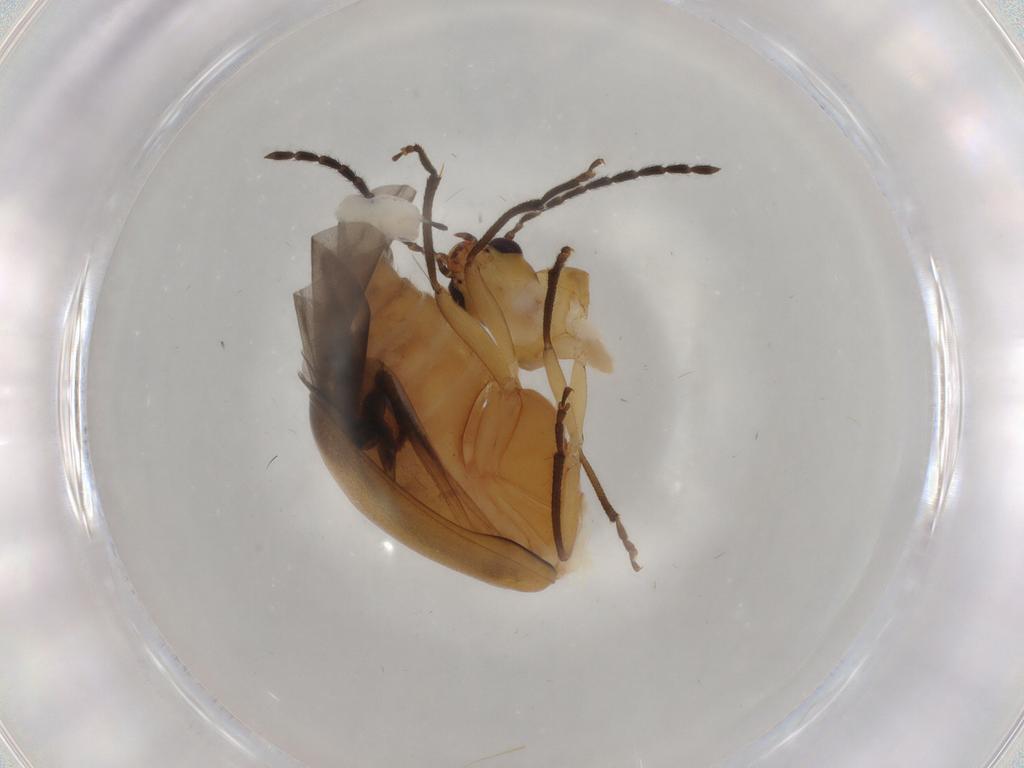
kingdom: Animalia
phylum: Arthropoda
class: Insecta
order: Coleoptera
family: Lycidae
